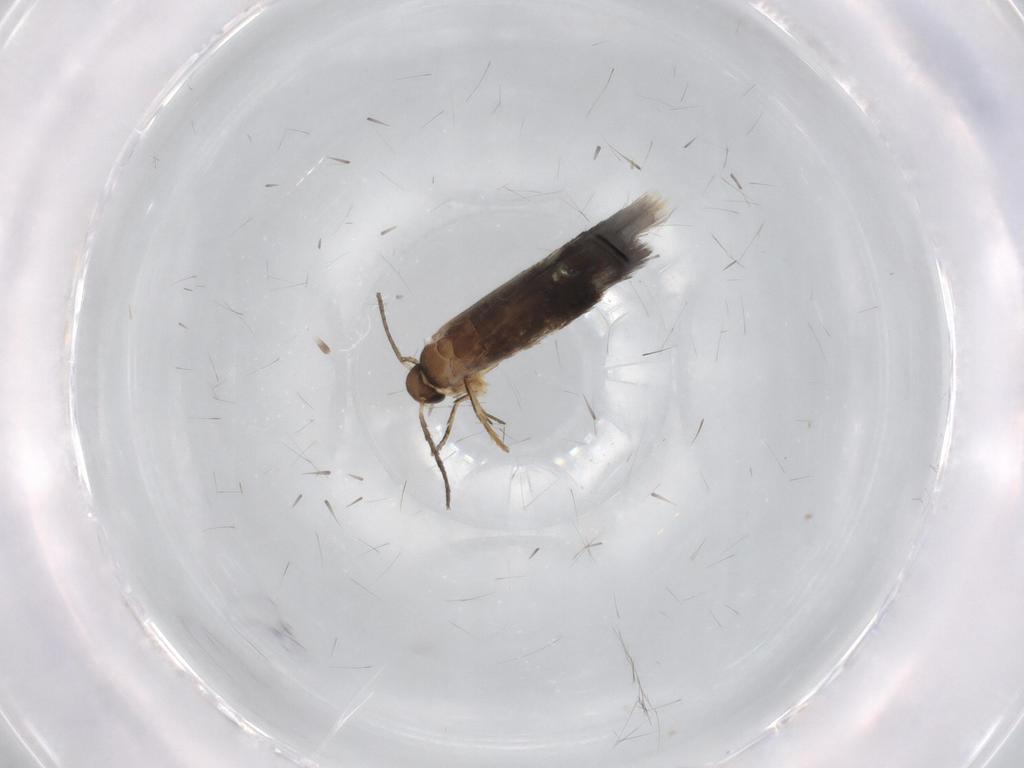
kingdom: Animalia
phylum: Arthropoda
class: Insecta
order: Lepidoptera
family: Heliozelidae
